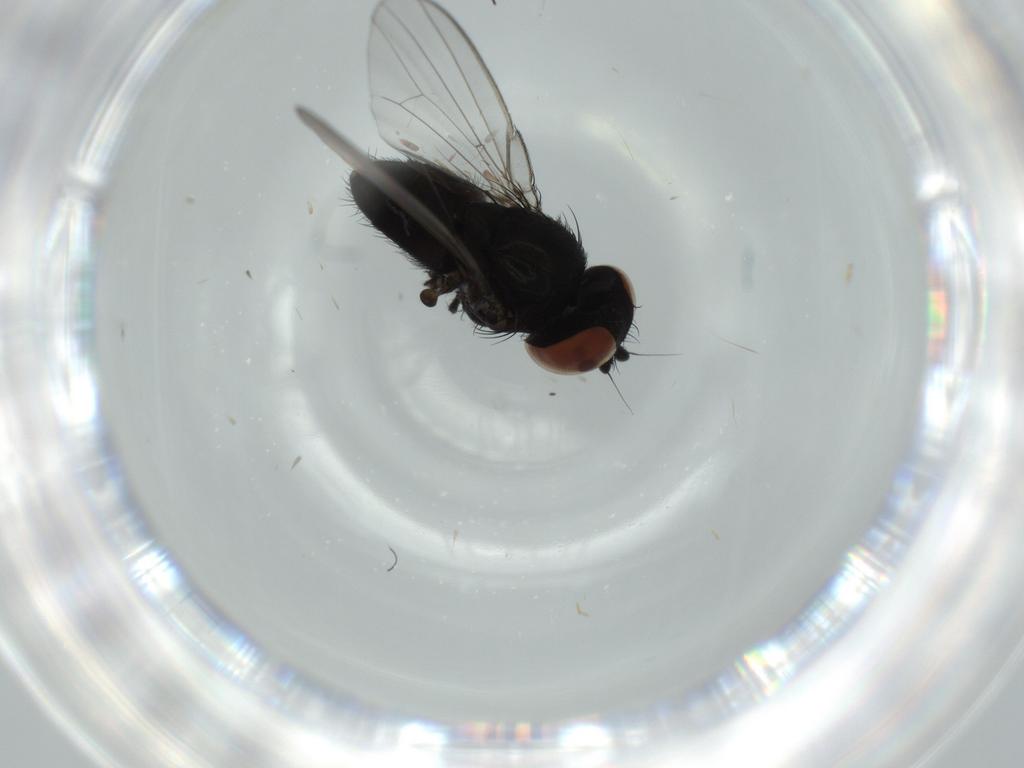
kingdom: Animalia
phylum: Arthropoda
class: Insecta
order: Diptera
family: Milichiidae
